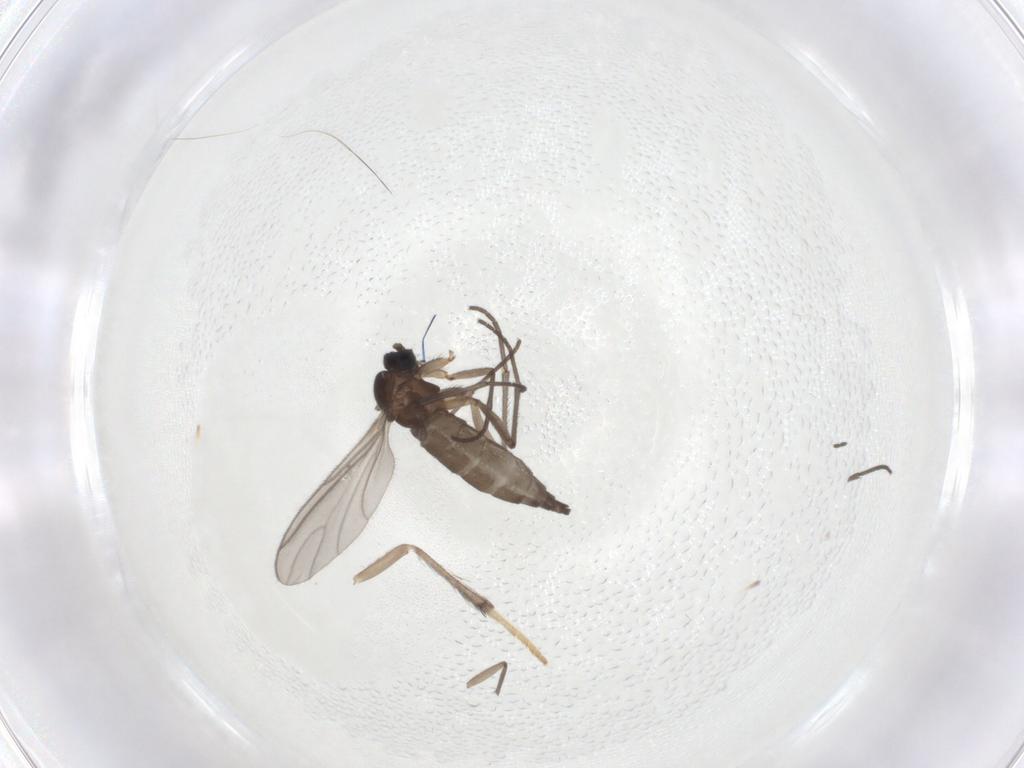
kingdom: Animalia
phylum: Arthropoda
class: Insecta
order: Diptera
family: Psychodidae
